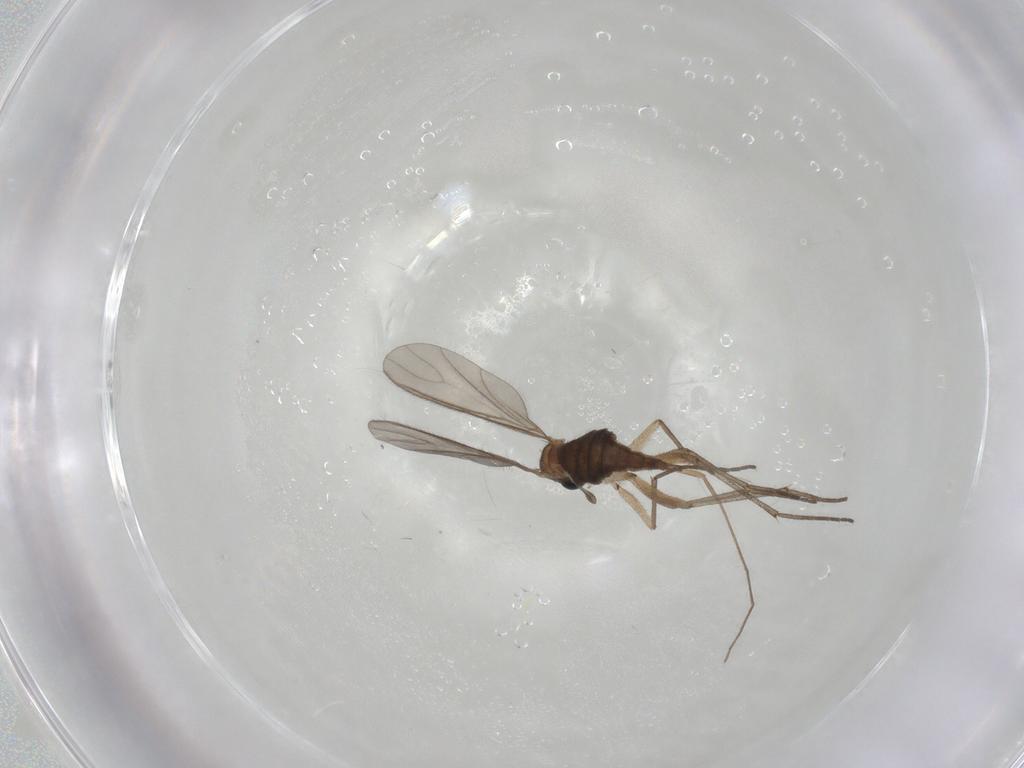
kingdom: Animalia
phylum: Arthropoda
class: Insecta
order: Diptera
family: Sciaridae
